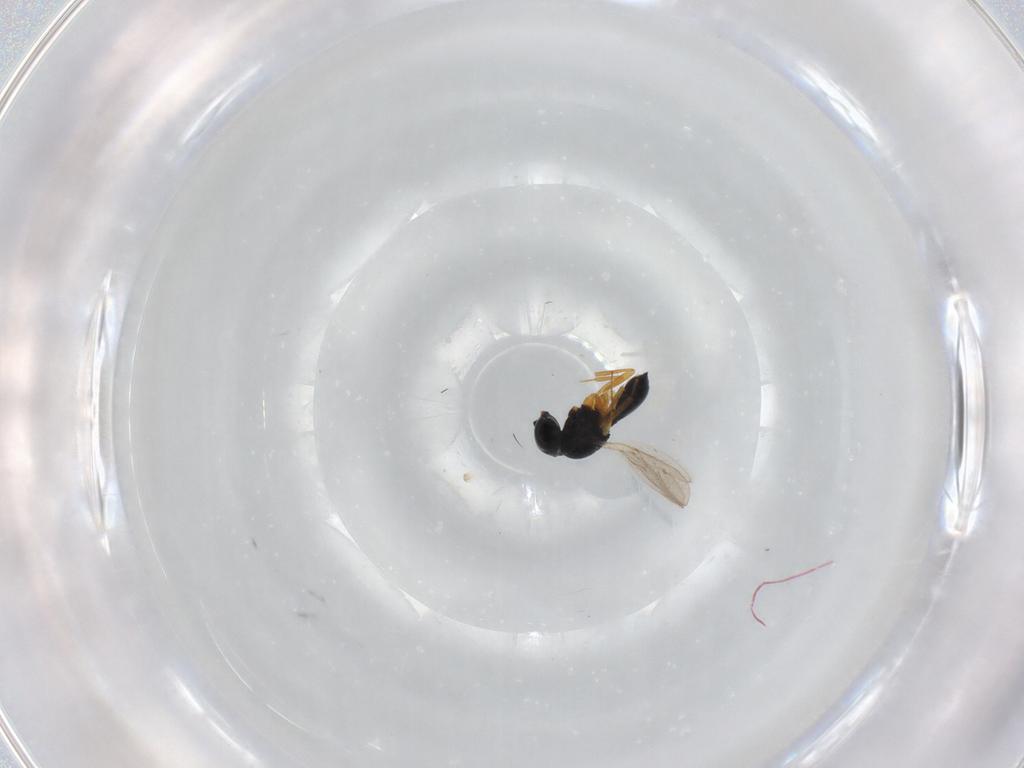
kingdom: Animalia
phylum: Arthropoda
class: Insecta
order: Hymenoptera
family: Scelionidae
